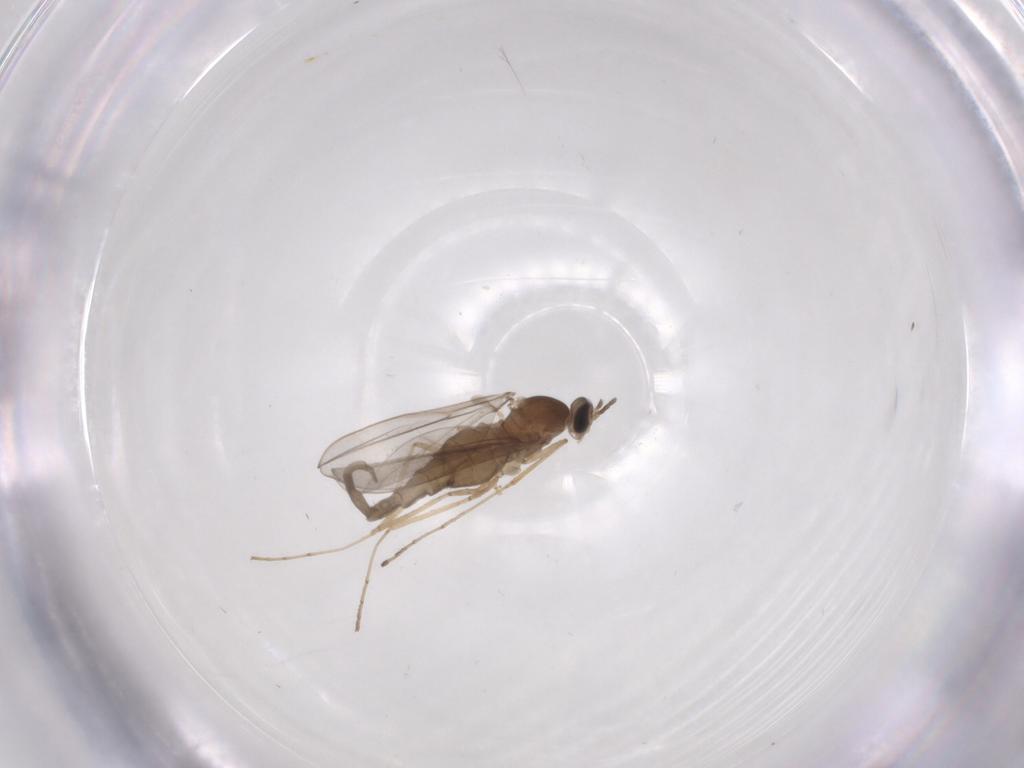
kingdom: Animalia
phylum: Arthropoda
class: Insecta
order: Diptera
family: Cecidomyiidae
